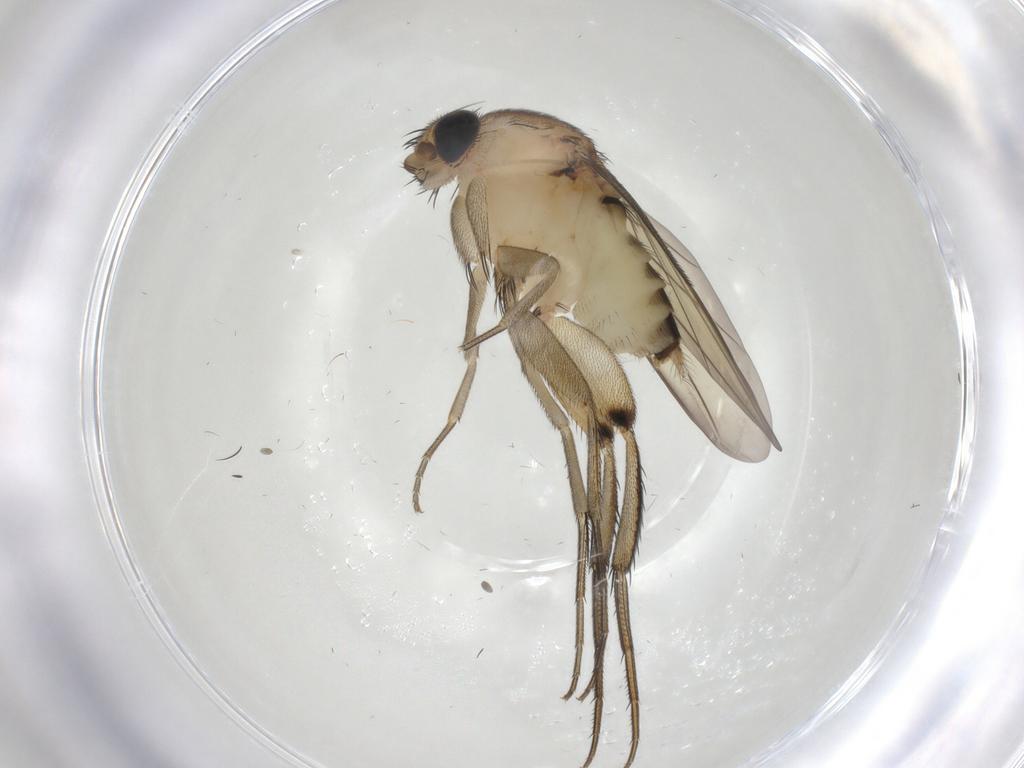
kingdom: Animalia
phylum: Arthropoda
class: Insecta
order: Diptera
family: Phoridae
